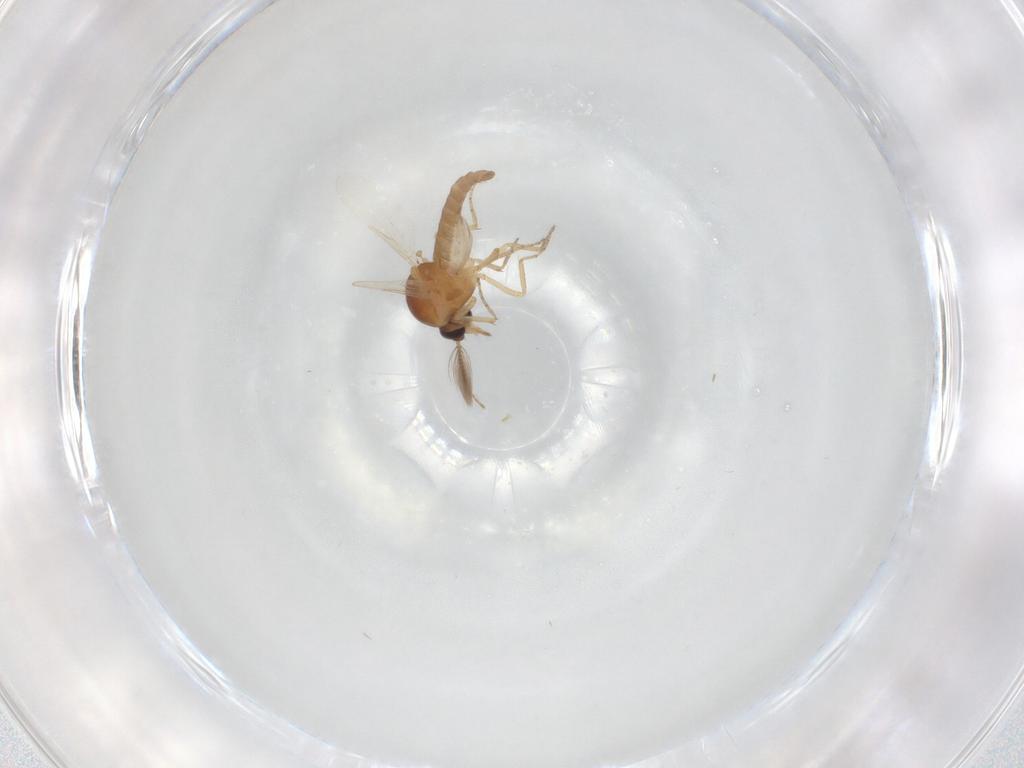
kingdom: Animalia
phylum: Arthropoda
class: Insecta
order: Diptera
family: Ceratopogonidae
